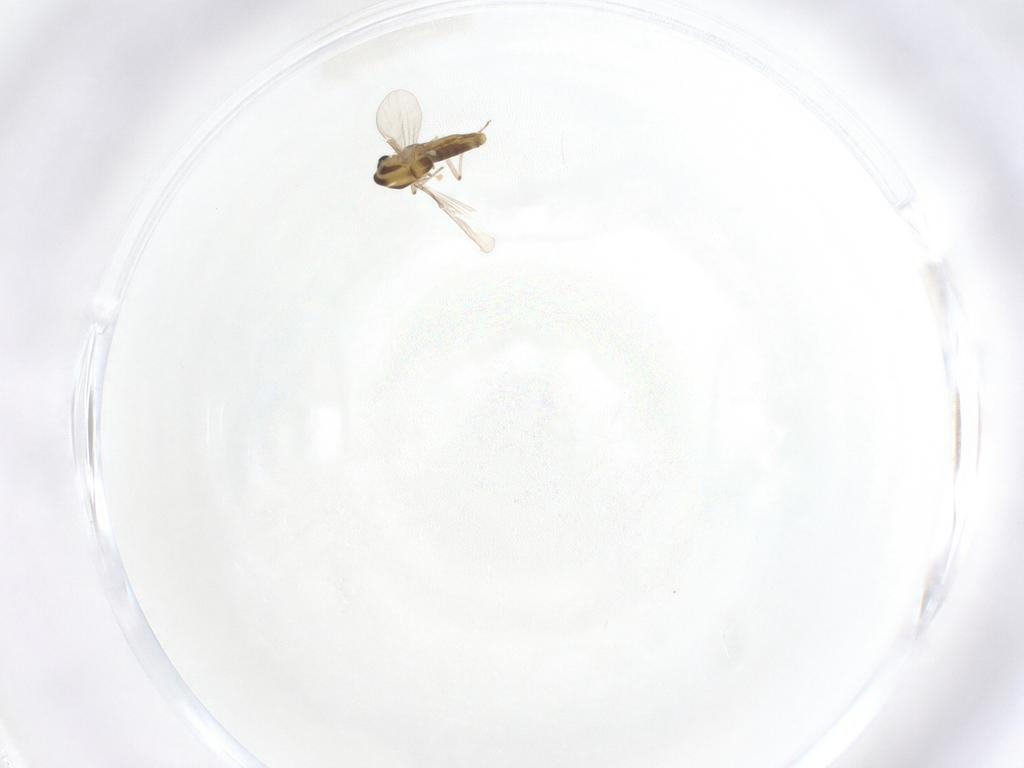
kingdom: Animalia
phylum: Arthropoda
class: Insecta
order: Diptera
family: Chironomidae
